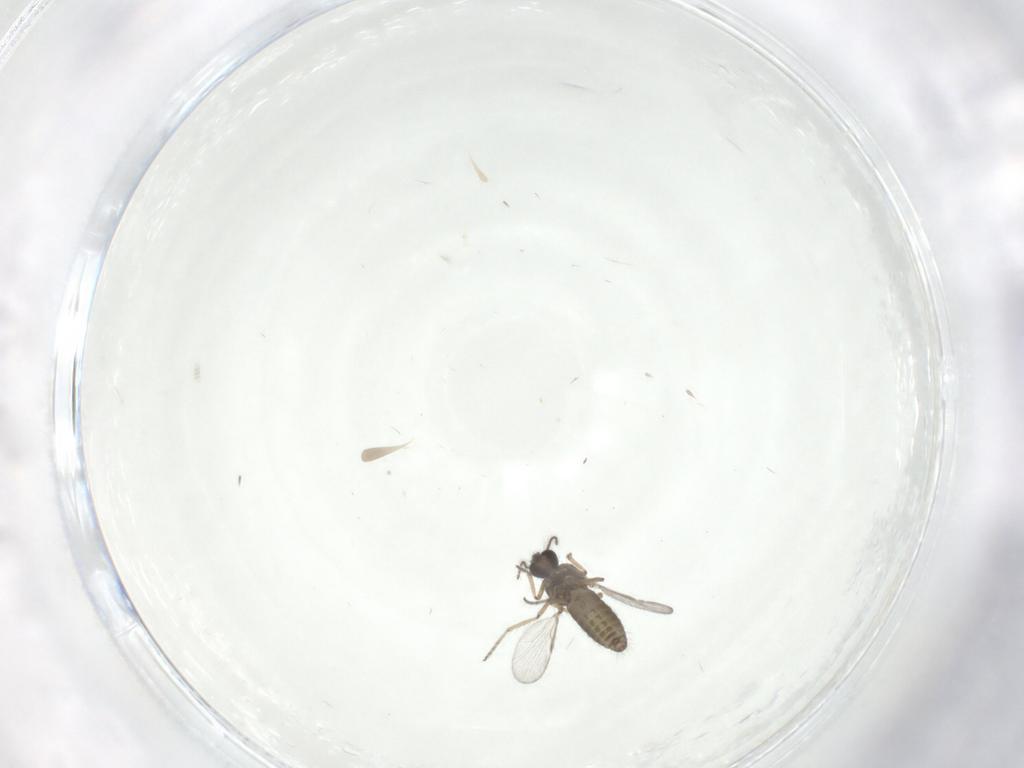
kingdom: Animalia
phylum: Arthropoda
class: Insecta
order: Diptera
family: Ceratopogonidae
